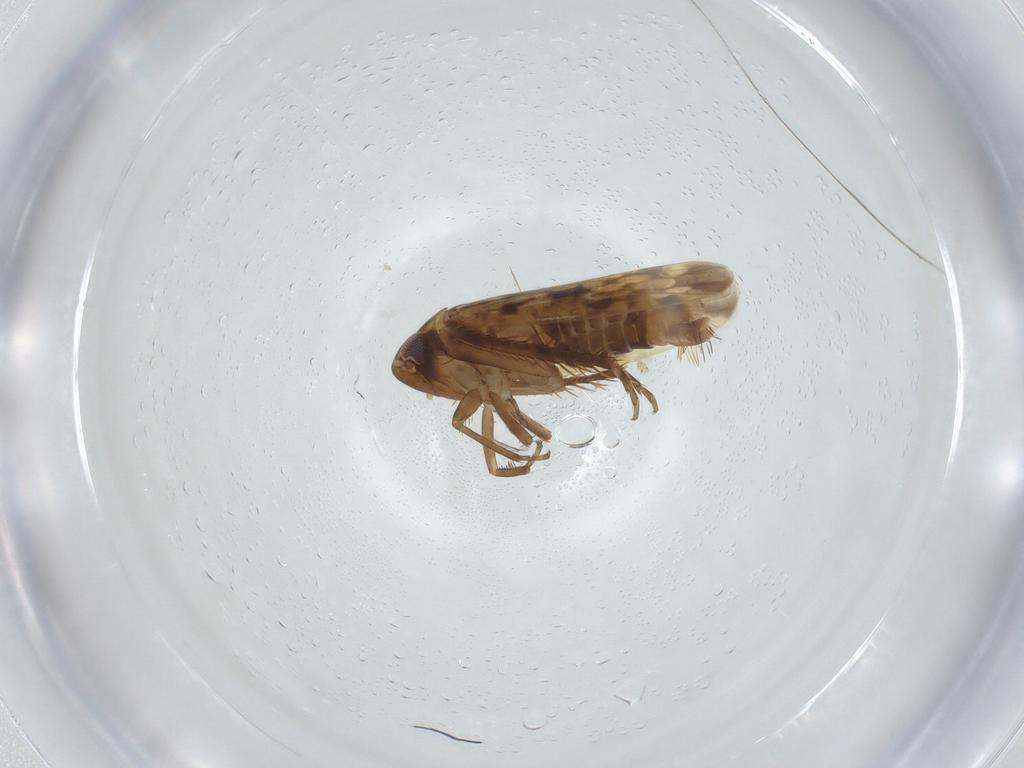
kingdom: Animalia
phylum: Arthropoda
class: Insecta
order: Hemiptera
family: Cicadellidae
